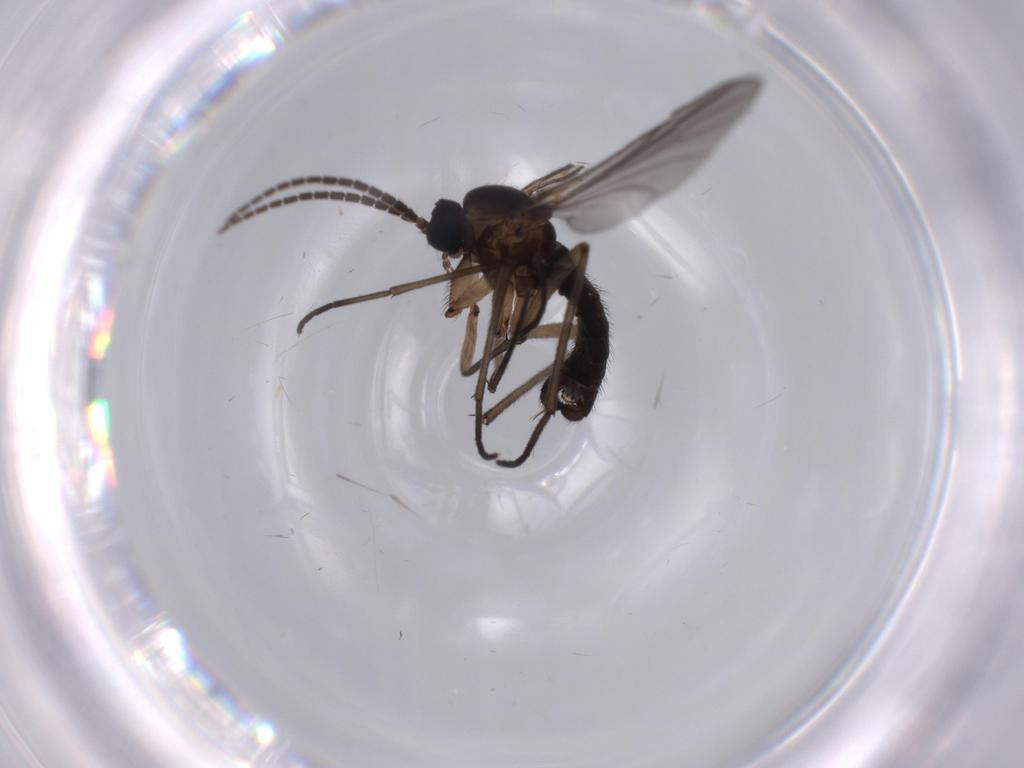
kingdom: Animalia
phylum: Arthropoda
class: Insecta
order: Diptera
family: Sciaridae
